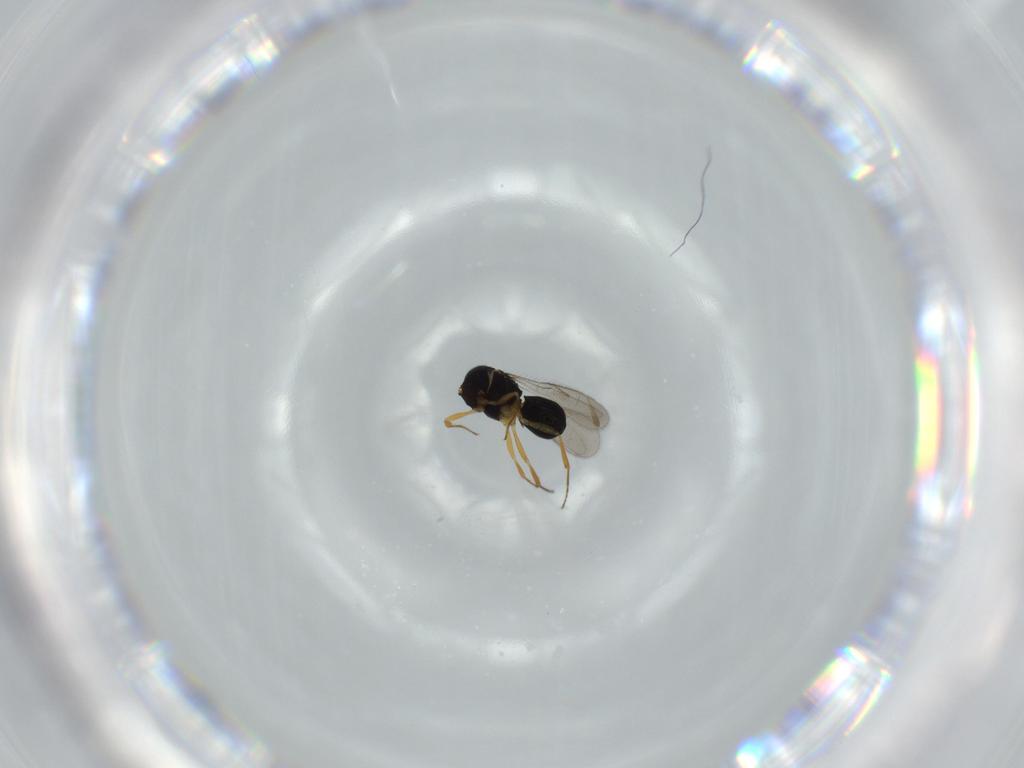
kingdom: Animalia
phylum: Arthropoda
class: Insecta
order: Hymenoptera
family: Scelionidae
